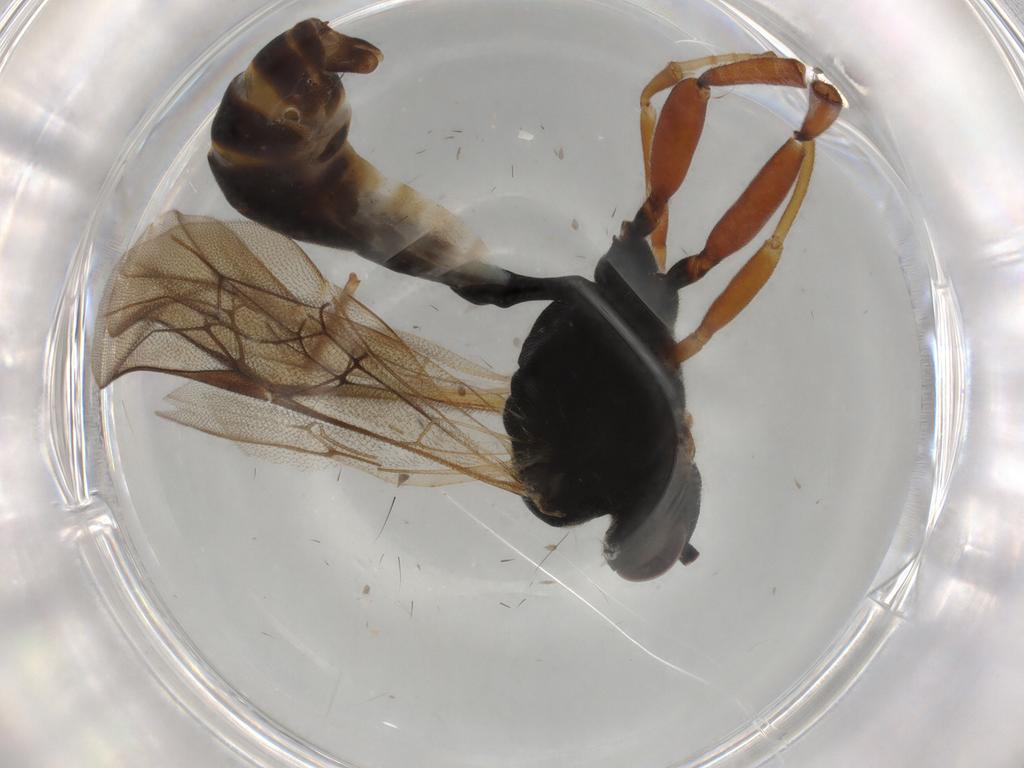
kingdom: Animalia
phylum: Arthropoda
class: Insecta
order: Hymenoptera
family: Ichneumonidae
